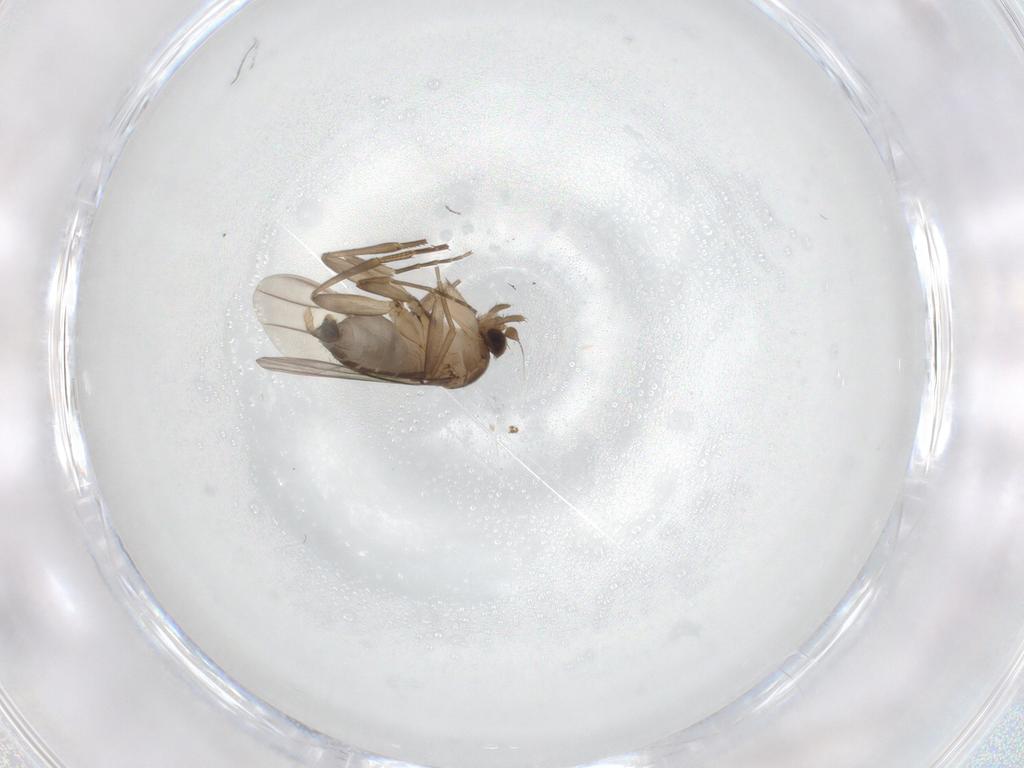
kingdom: Animalia
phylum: Arthropoda
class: Insecta
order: Diptera
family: Phoridae
